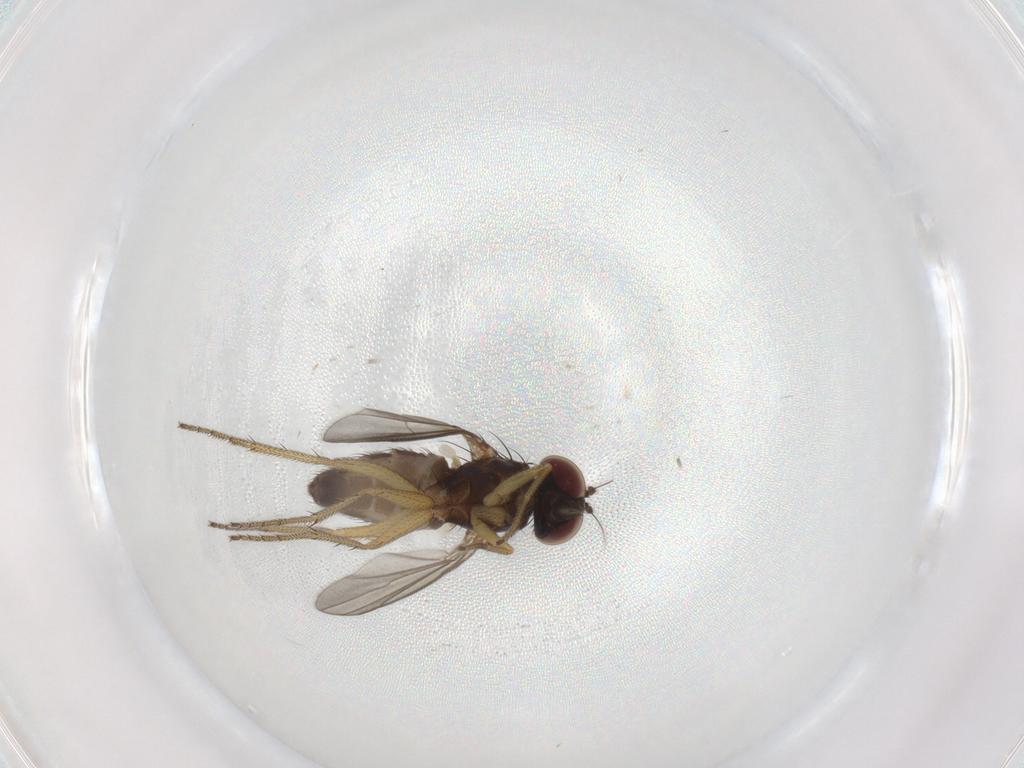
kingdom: Animalia
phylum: Arthropoda
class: Insecta
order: Diptera
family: Dolichopodidae
